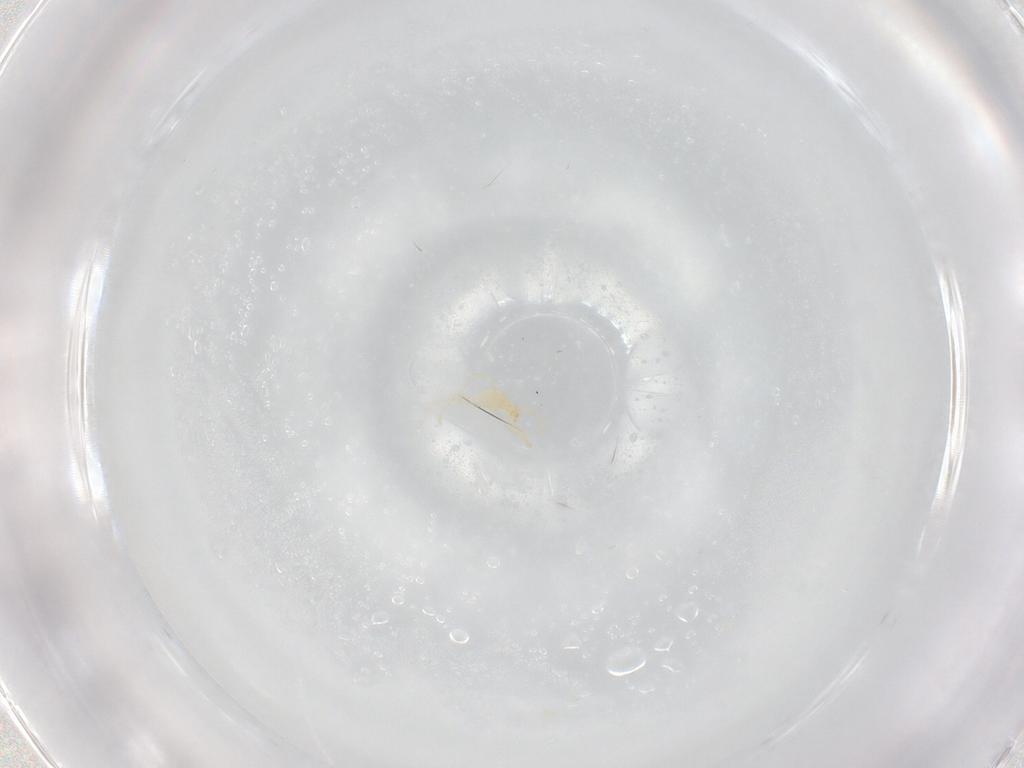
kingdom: Animalia
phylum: Arthropoda
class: Arachnida
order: Trombidiformes
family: Erythraeidae
